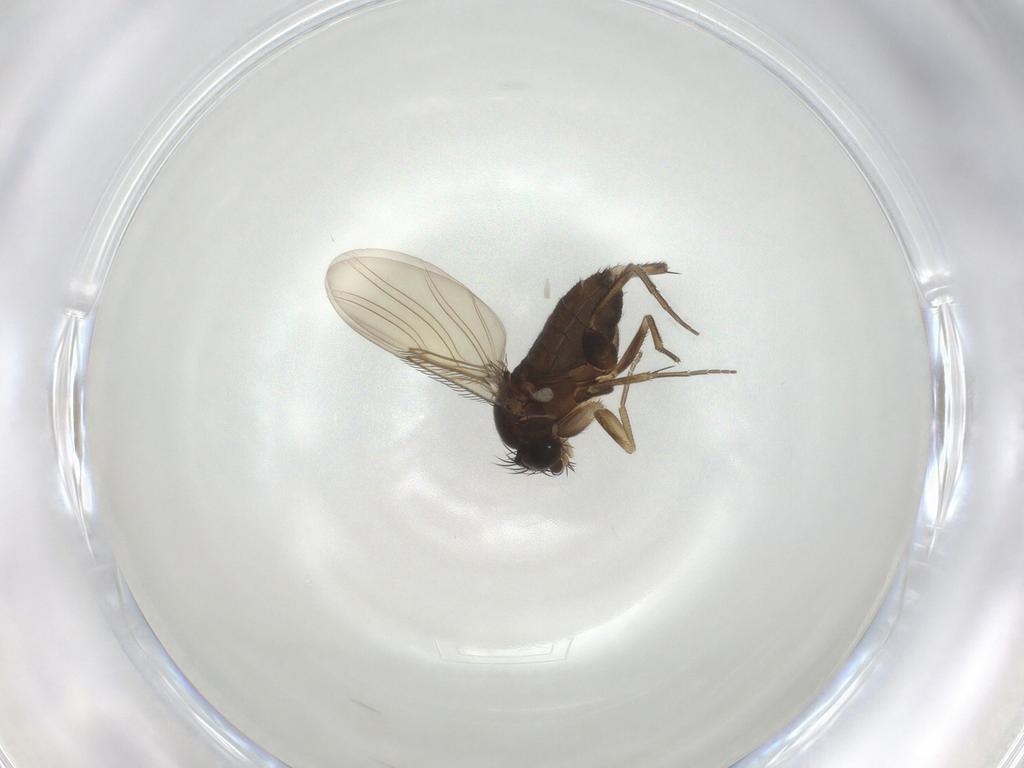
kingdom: Animalia
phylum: Arthropoda
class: Insecta
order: Diptera
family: Phoridae
